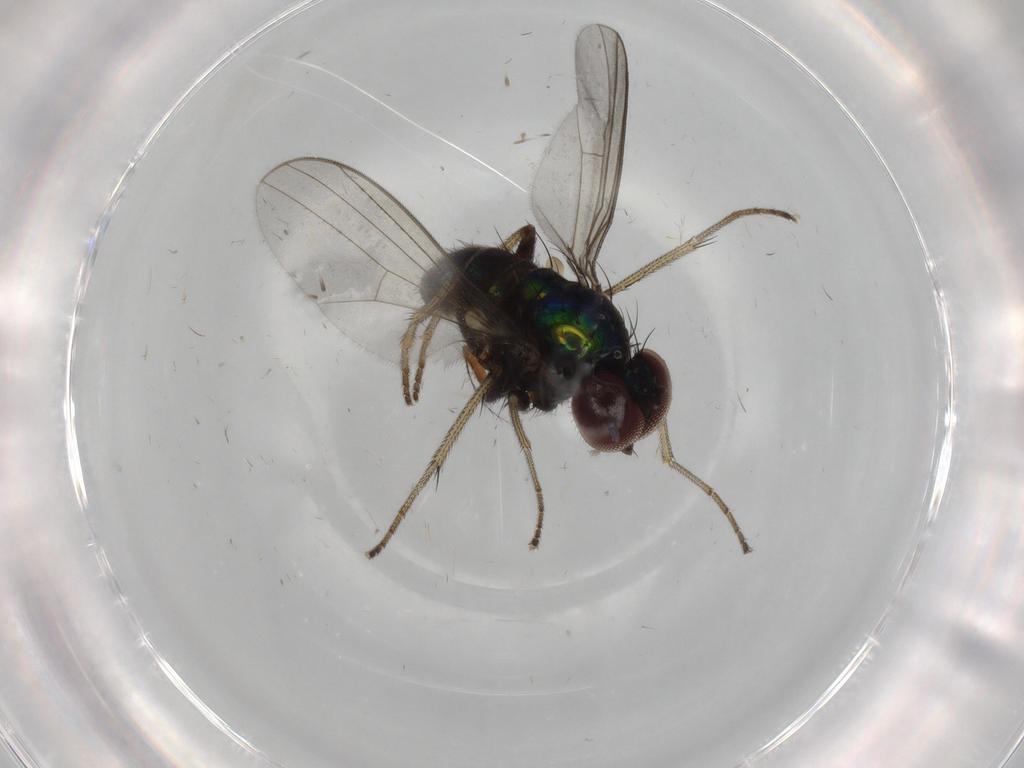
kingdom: Animalia
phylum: Arthropoda
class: Insecta
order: Diptera
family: Dolichopodidae
